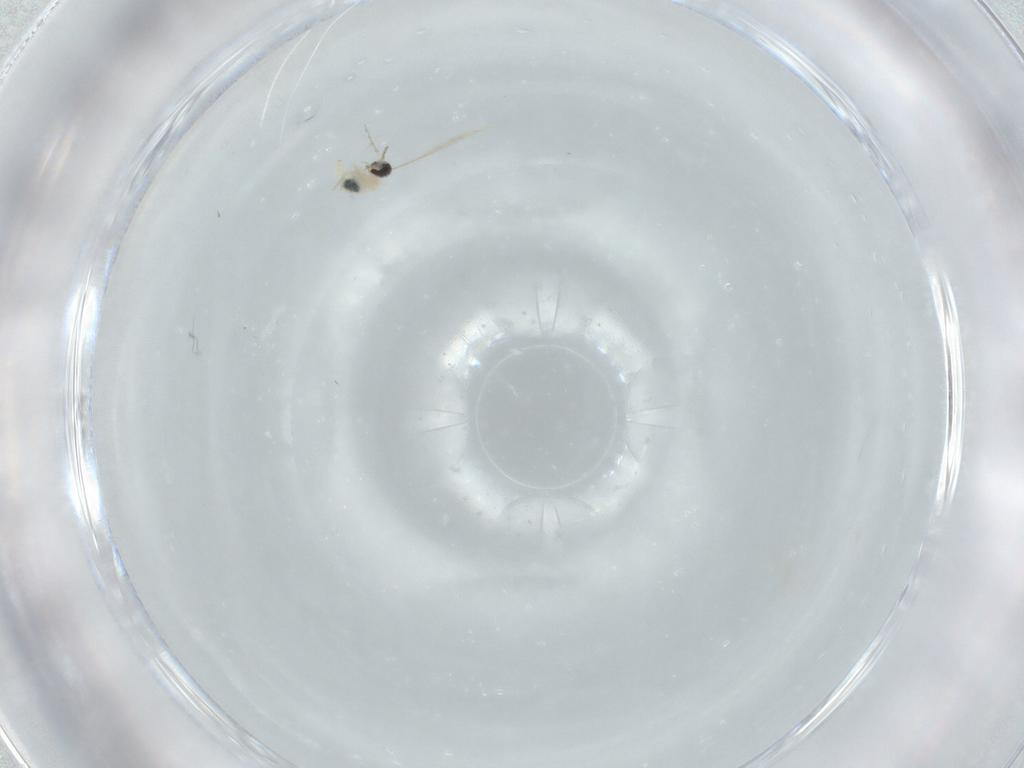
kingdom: Animalia
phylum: Arthropoda
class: Insecta
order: Diptera
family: Cecidomyiidae
